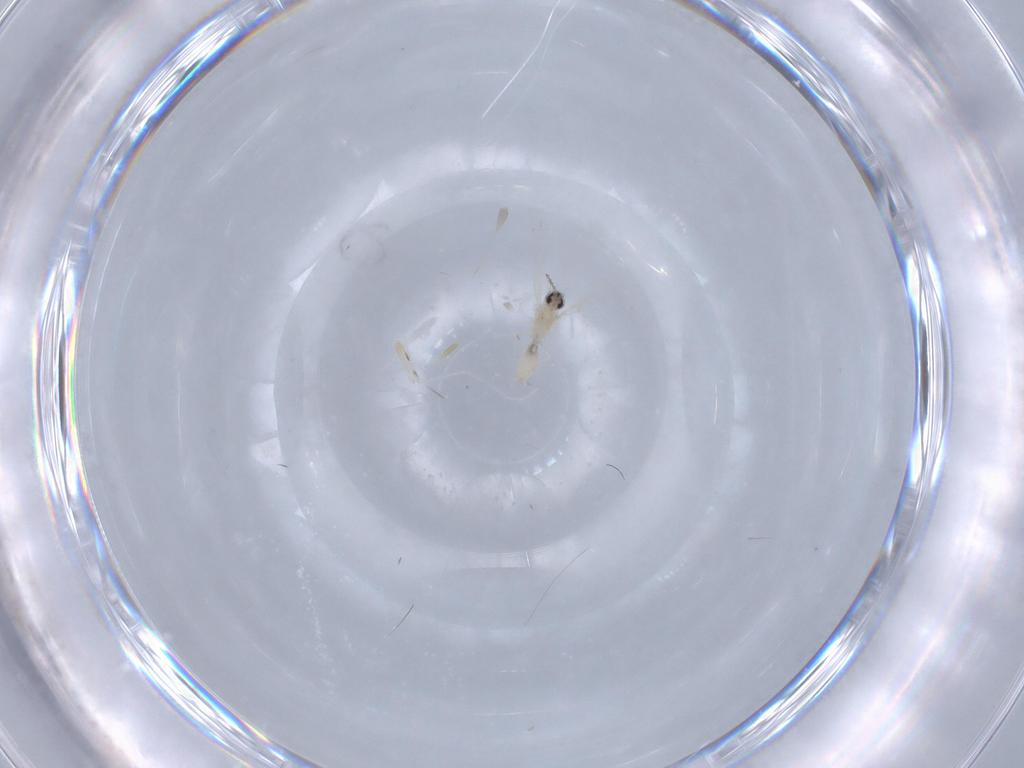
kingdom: Animalia
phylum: Arthropoda
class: Insecta
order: Diptera
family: Cecidomyiidae
